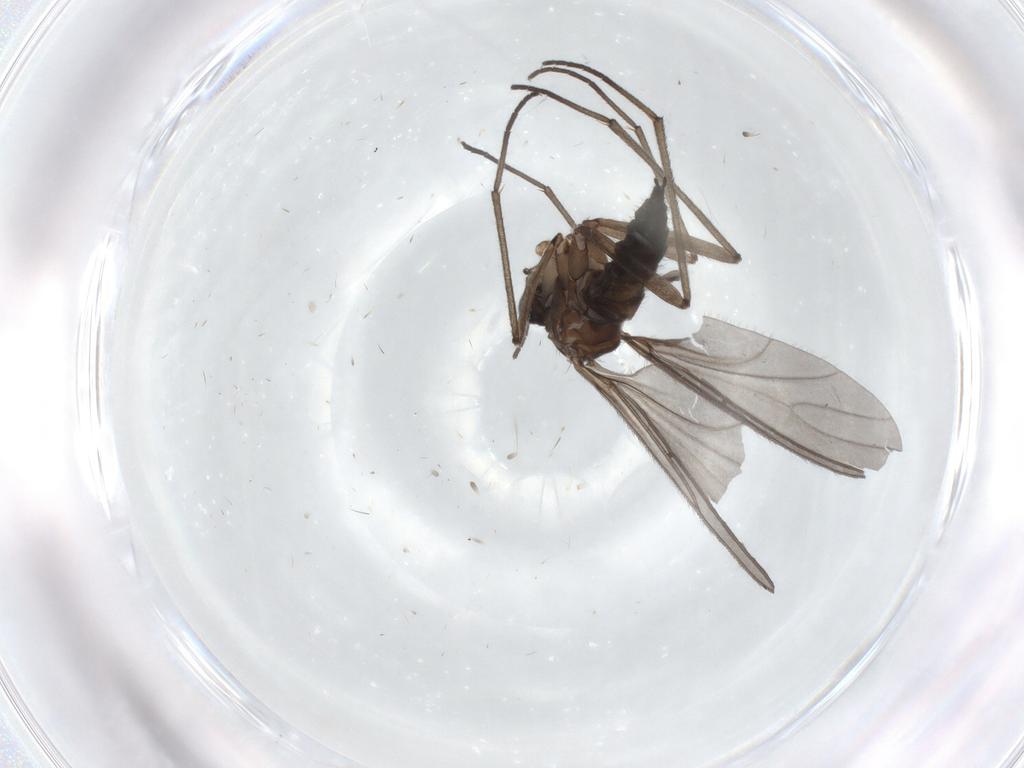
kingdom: Animalia
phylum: Arthropoda
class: Insecta
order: Diptera
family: Sciaridae
